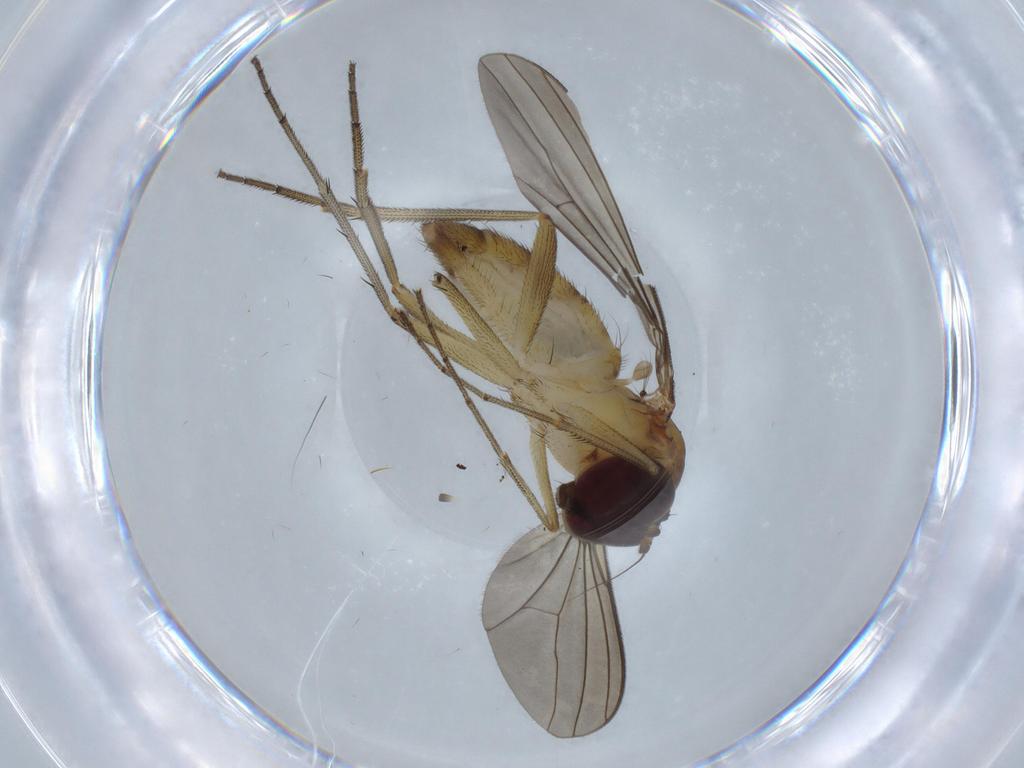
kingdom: Animalia
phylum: Arthropoda
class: Insecta
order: Diptera
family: Dolichopodidae
